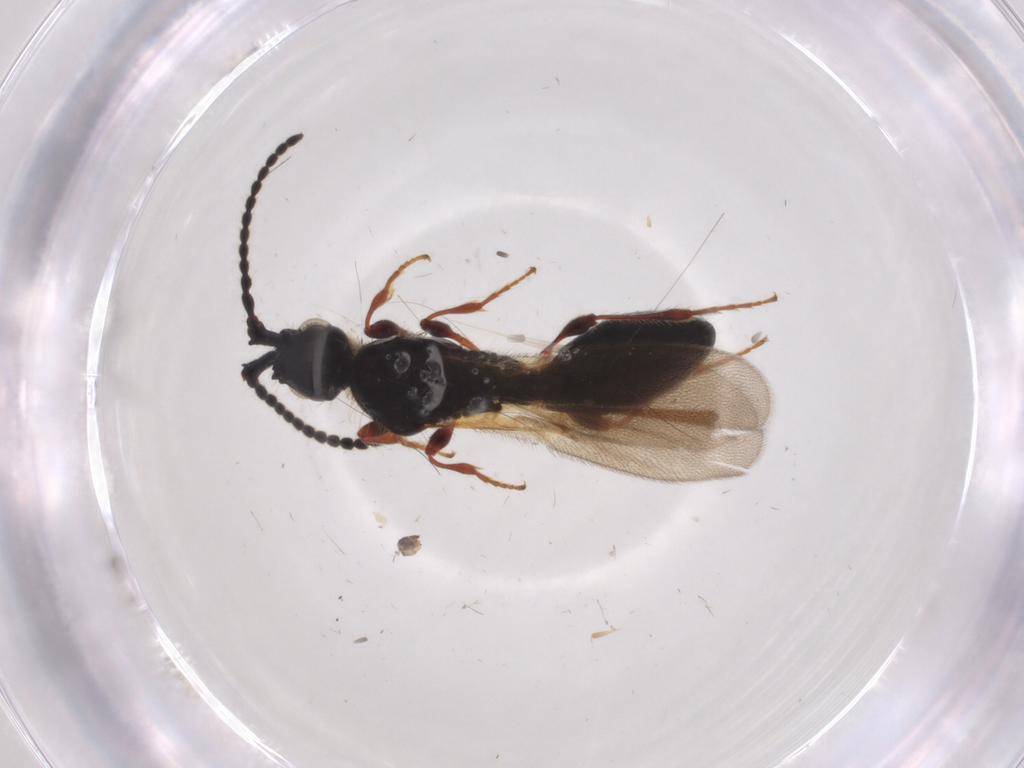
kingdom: Animalia
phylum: Arthropoda
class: Insecta
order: Hymenoptera
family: Diapriidae
